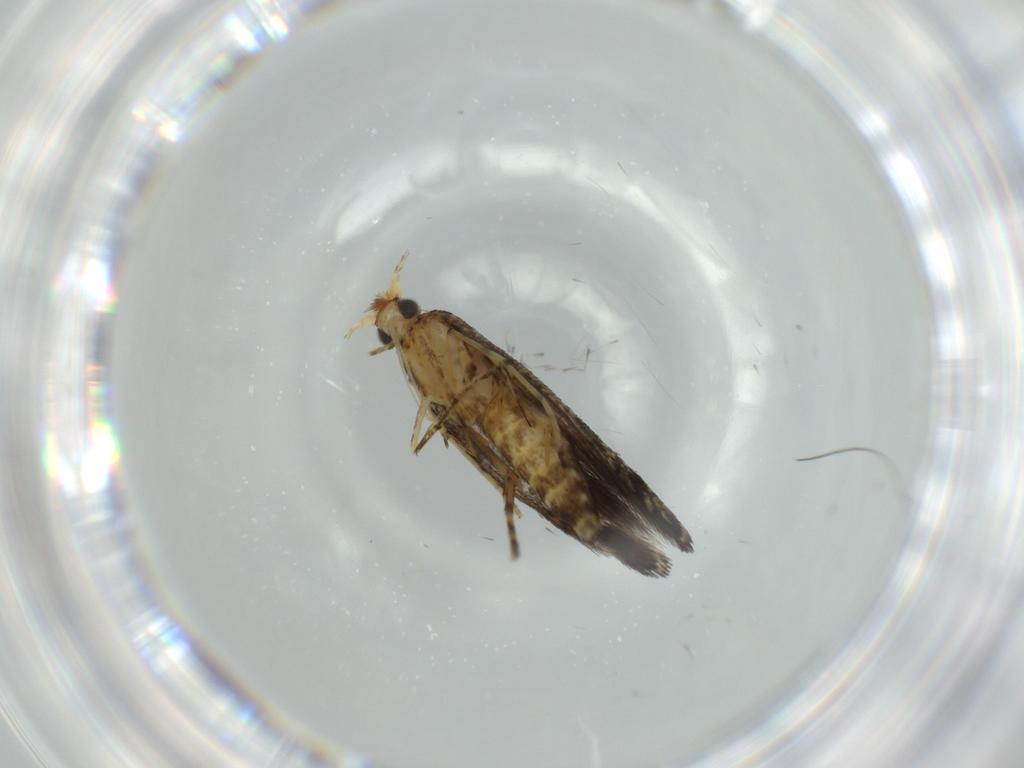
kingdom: Animalia
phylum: Arthropoda
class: Insecta
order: Lepidoptera
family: Argyresthiidae
